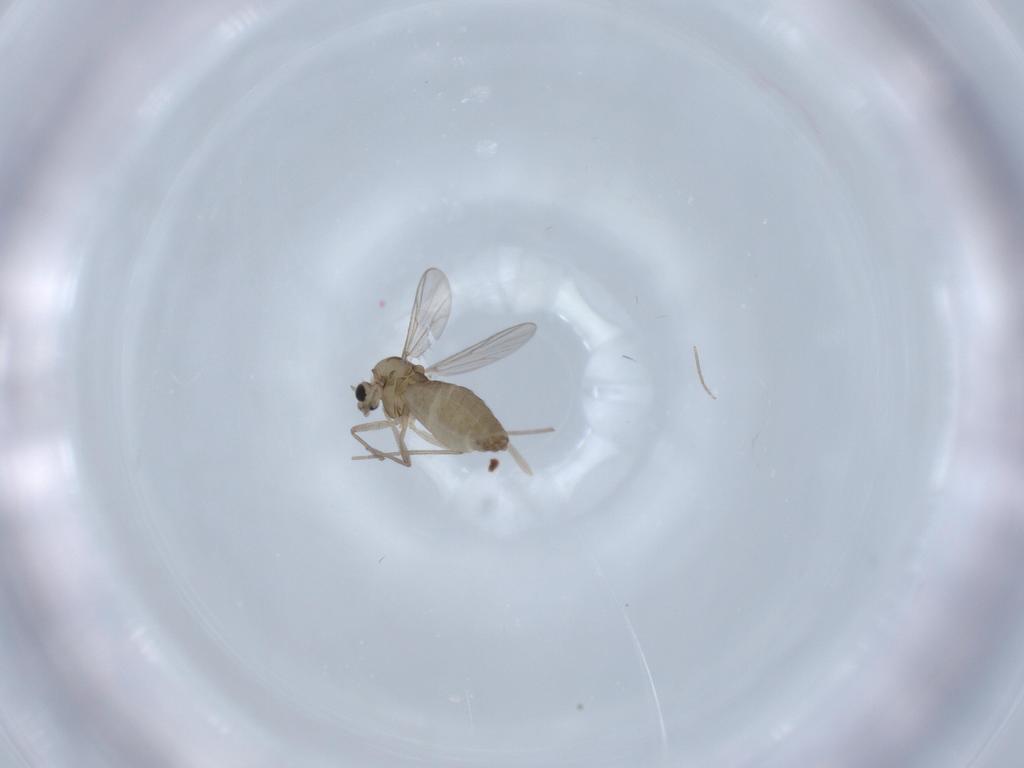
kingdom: Animalia
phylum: Arthropoda
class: Insecta
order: Diptera
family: Chironomidae
